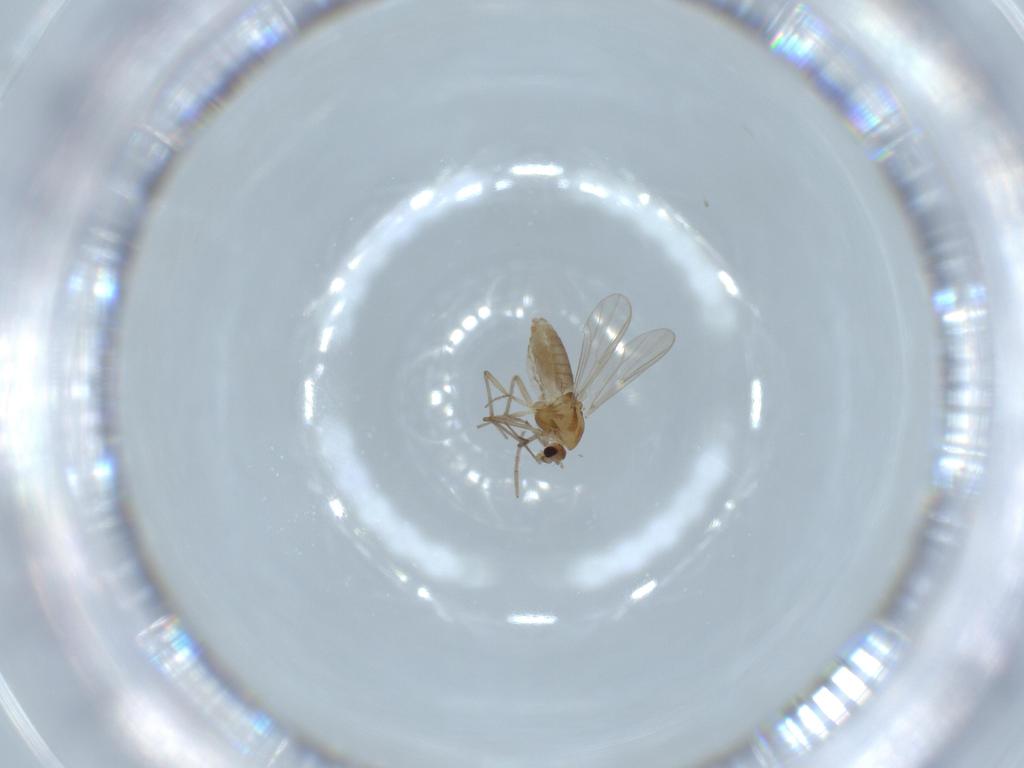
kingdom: Animalia
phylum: Arthropoda
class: Insecta
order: Diptera
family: Chironomidae
